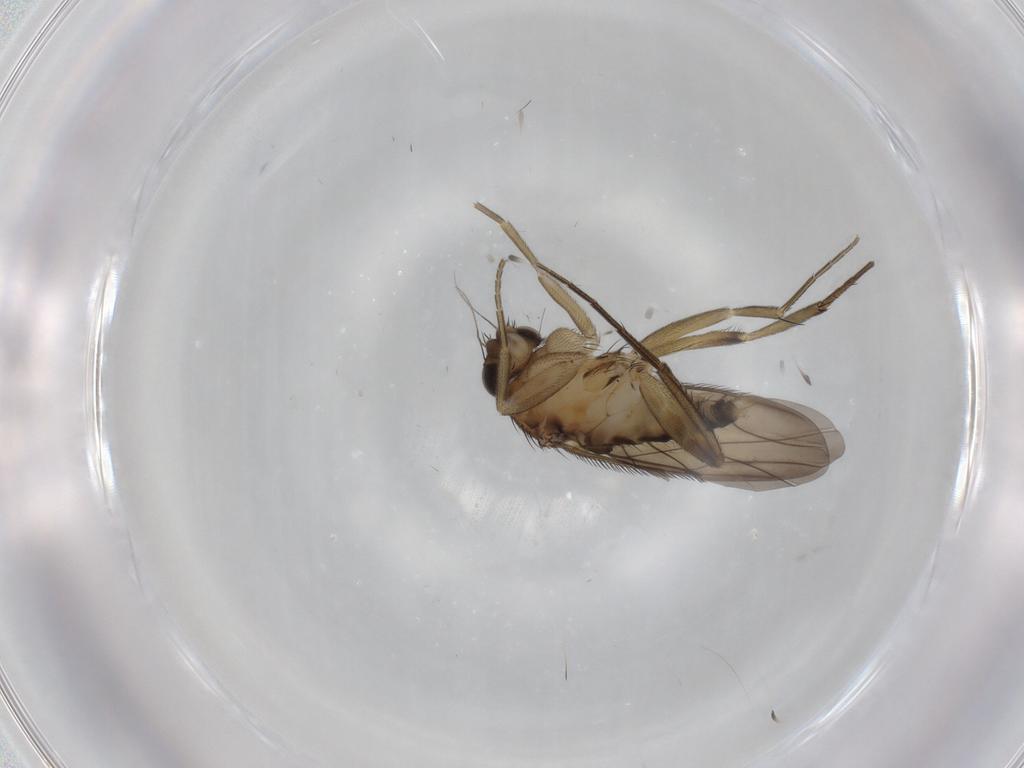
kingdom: Animalia
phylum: Arthropoda
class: Insecta
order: Diptera
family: Phoridae
